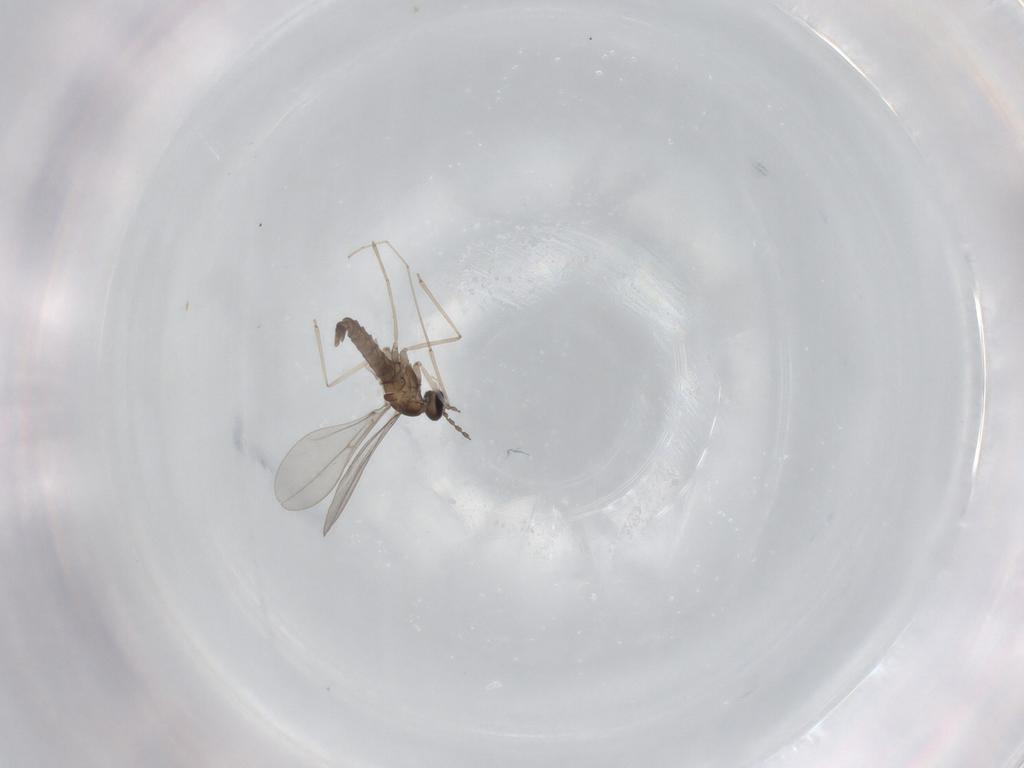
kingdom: Animalia
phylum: Arthropoda
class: Insecta
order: Diptera
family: Cecidomyiidae
